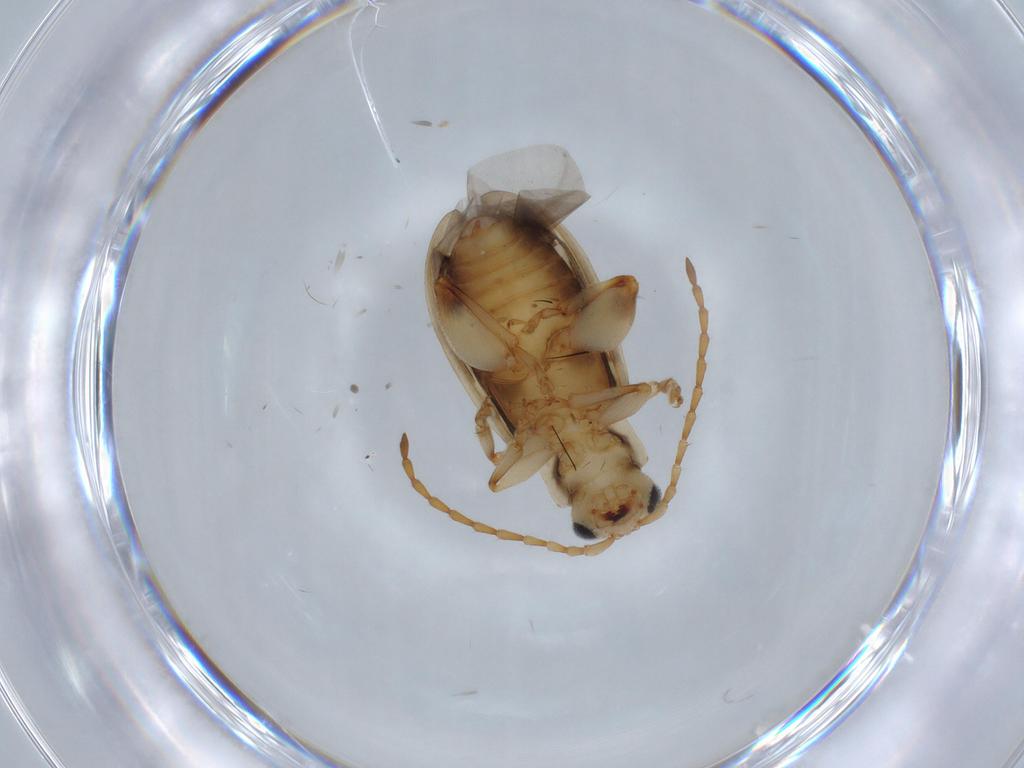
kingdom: Animalia
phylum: Arthropoda
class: Insecta
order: Coleoptera
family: Chrysomelidae
